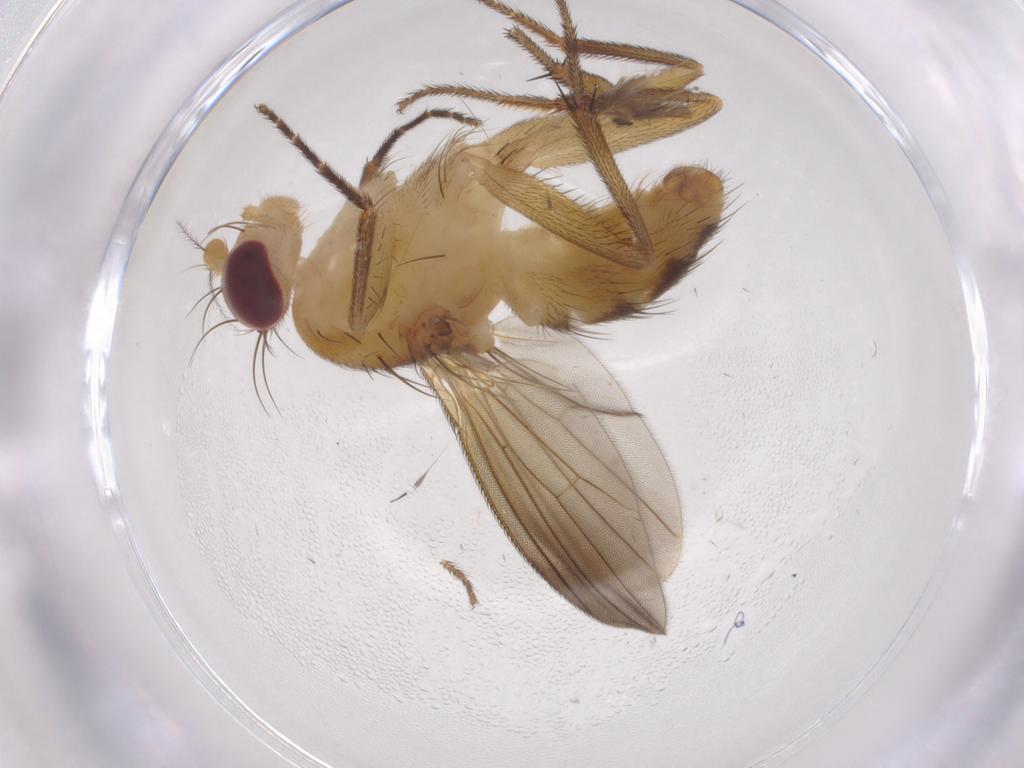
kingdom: Animalia
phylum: Arthropoda
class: Insecta
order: Diptera
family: Clusiidae
